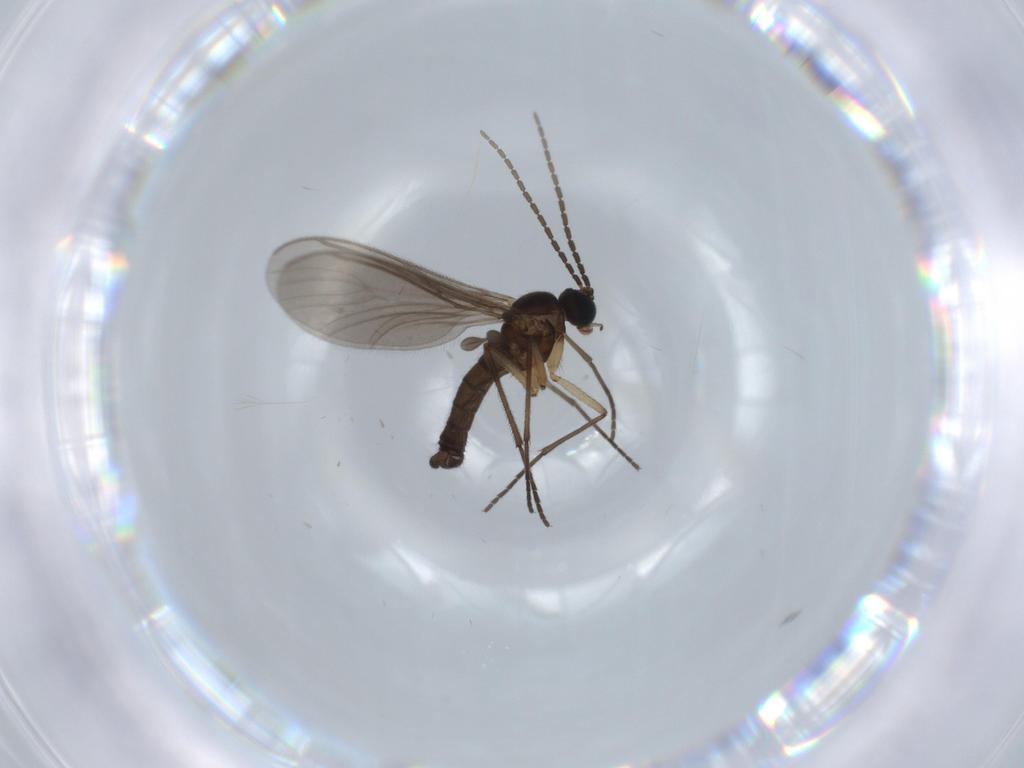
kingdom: Animalia
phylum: Arthropoda
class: Insecta
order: Diptera
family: Sciaridae
